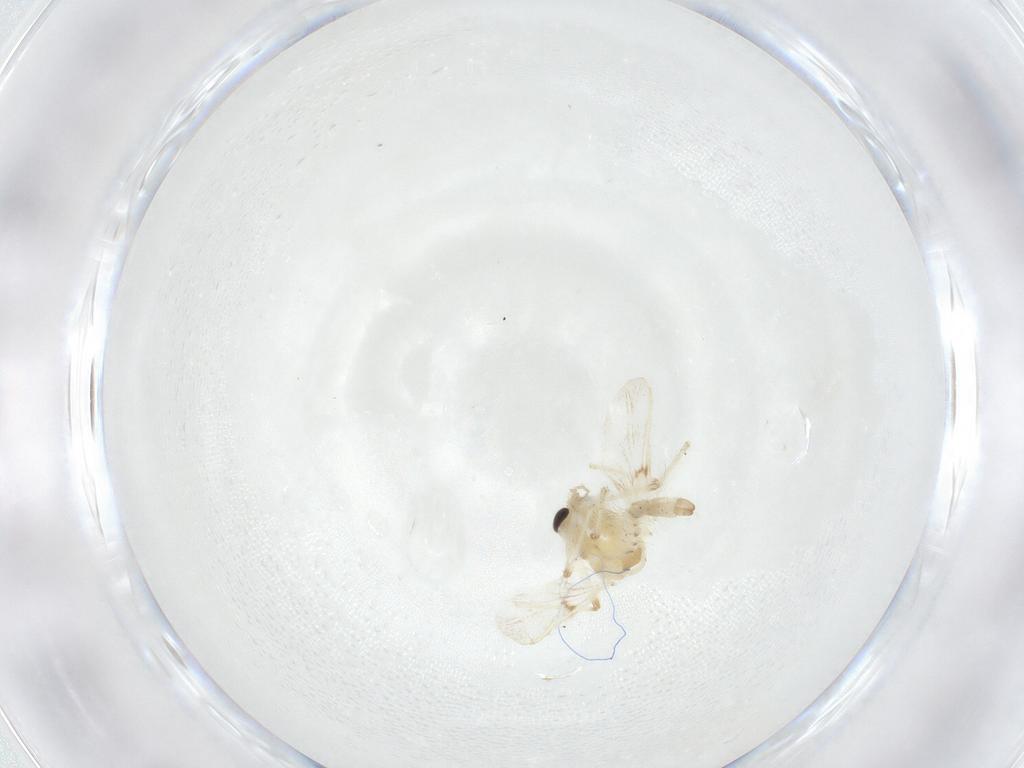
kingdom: Animalia
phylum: Arthropoda
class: Insecta
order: Diptera
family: Chironomidae
